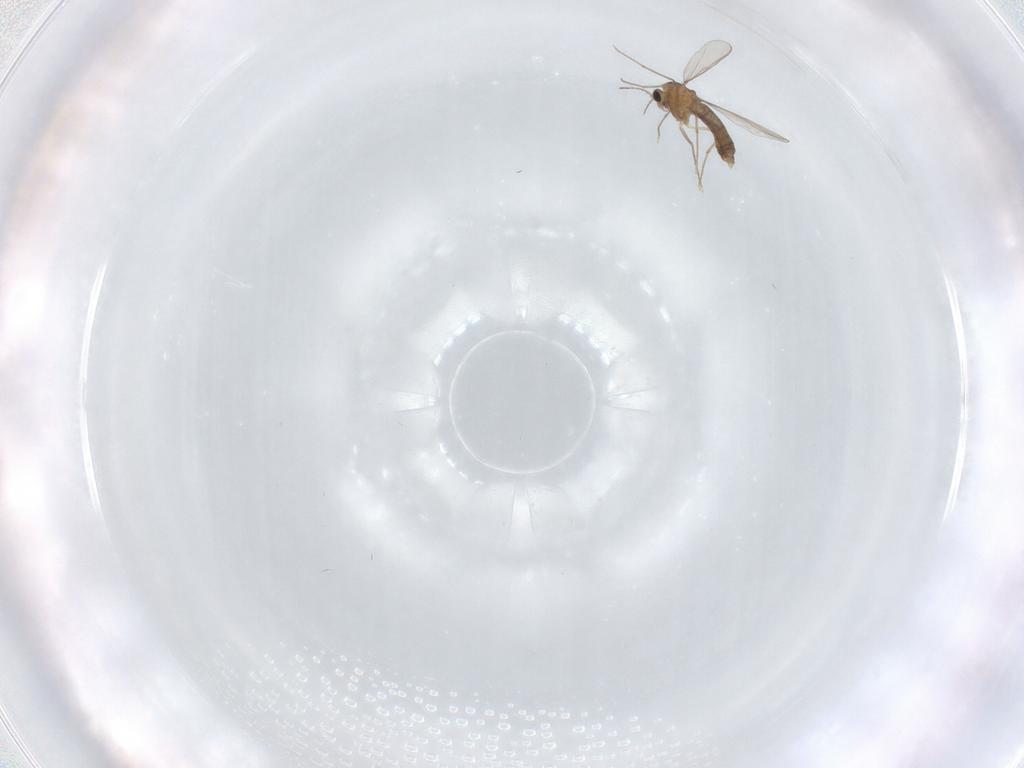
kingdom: Animalia
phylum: Arthropoda
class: Insecta
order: Diptera
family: Chironomidae
